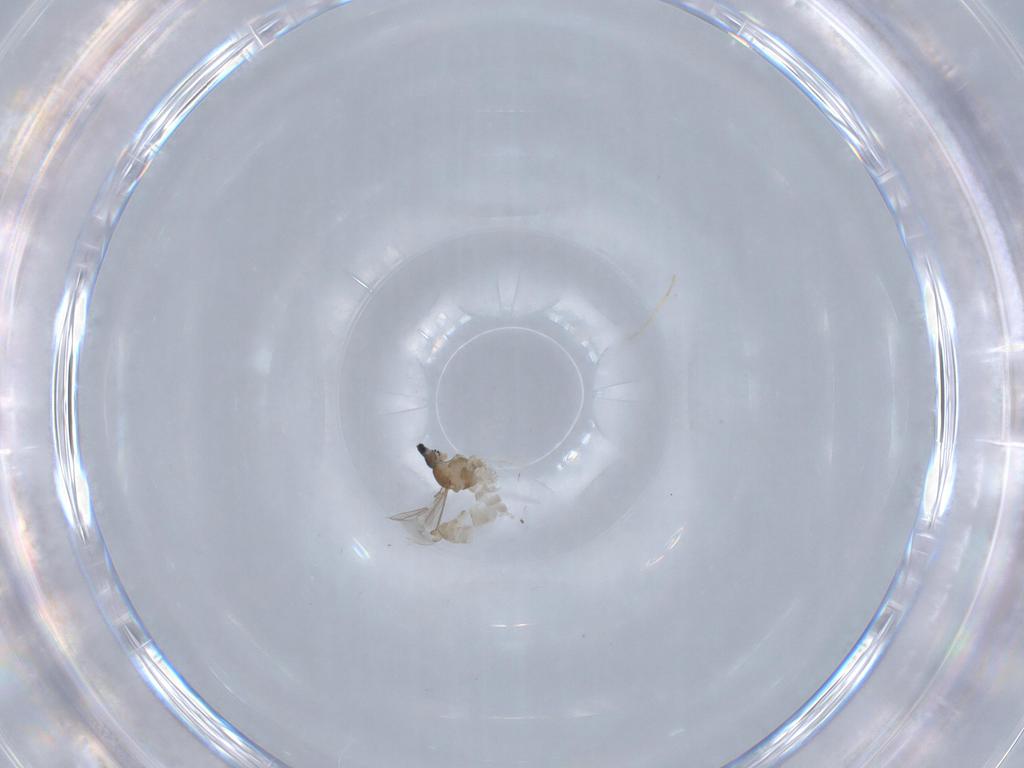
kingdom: Animalia
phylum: Arthropoda
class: Insecta
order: Diptera
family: Cecidomyiidae
